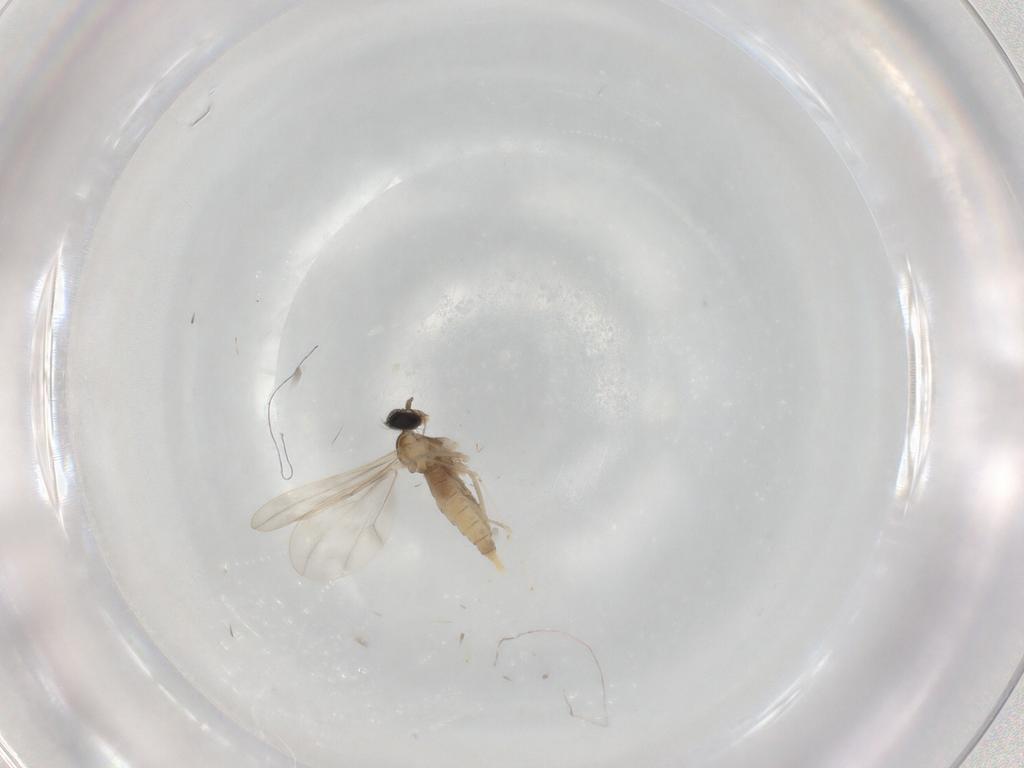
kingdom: Animalia
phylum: Arthropoda
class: Insecta
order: Diptera
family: Cecidomyiidae
